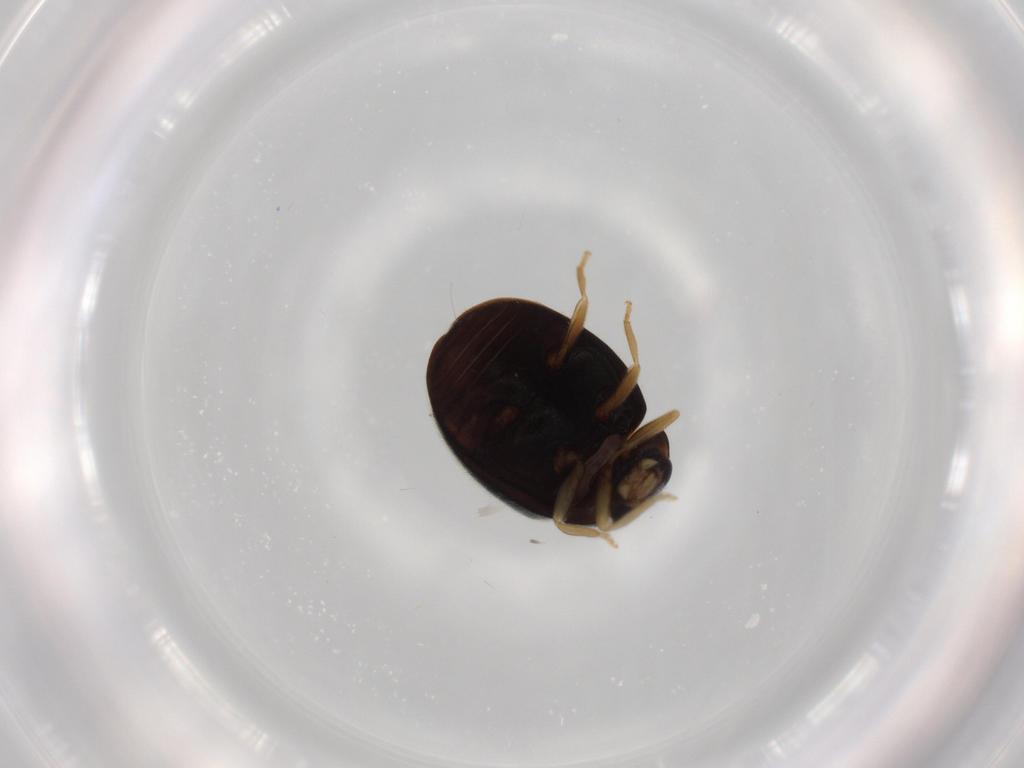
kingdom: Animalia
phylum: Arthropoda
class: Insecta
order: Coleoptera
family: Coccinellidae
